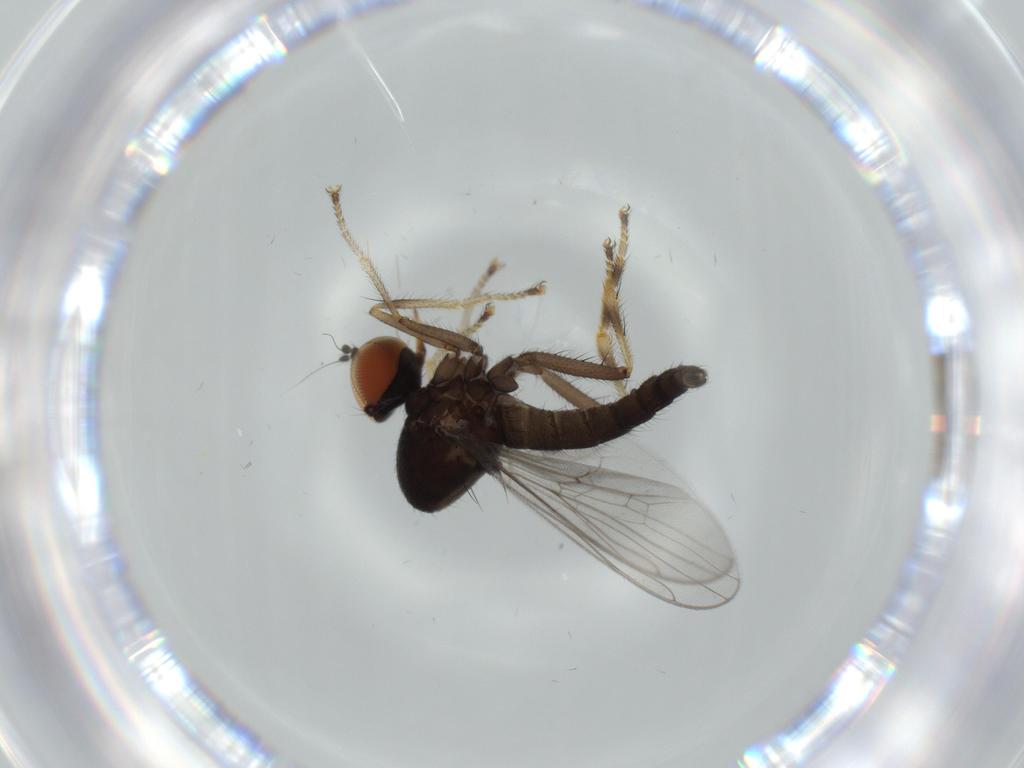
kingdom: Animalia
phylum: Arthropoda
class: Insecta
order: Diptera
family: Hybotidae
